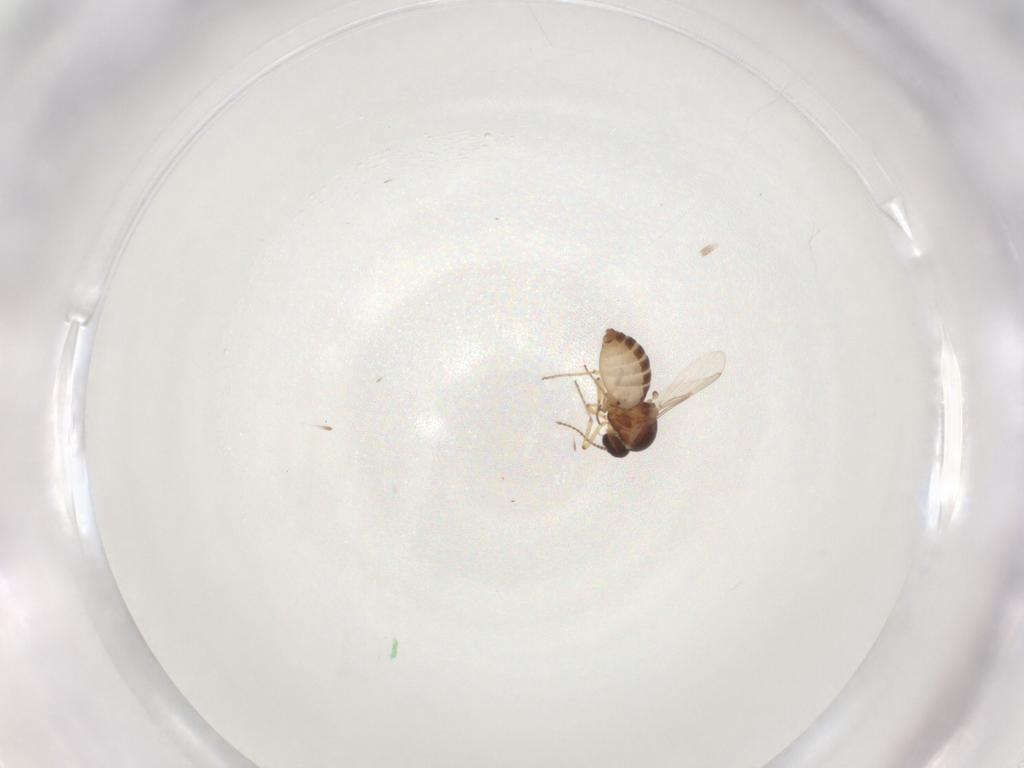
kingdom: Animalia
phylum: Arthropoda
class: Insecta
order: Diptera
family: Ceratopogonidae
